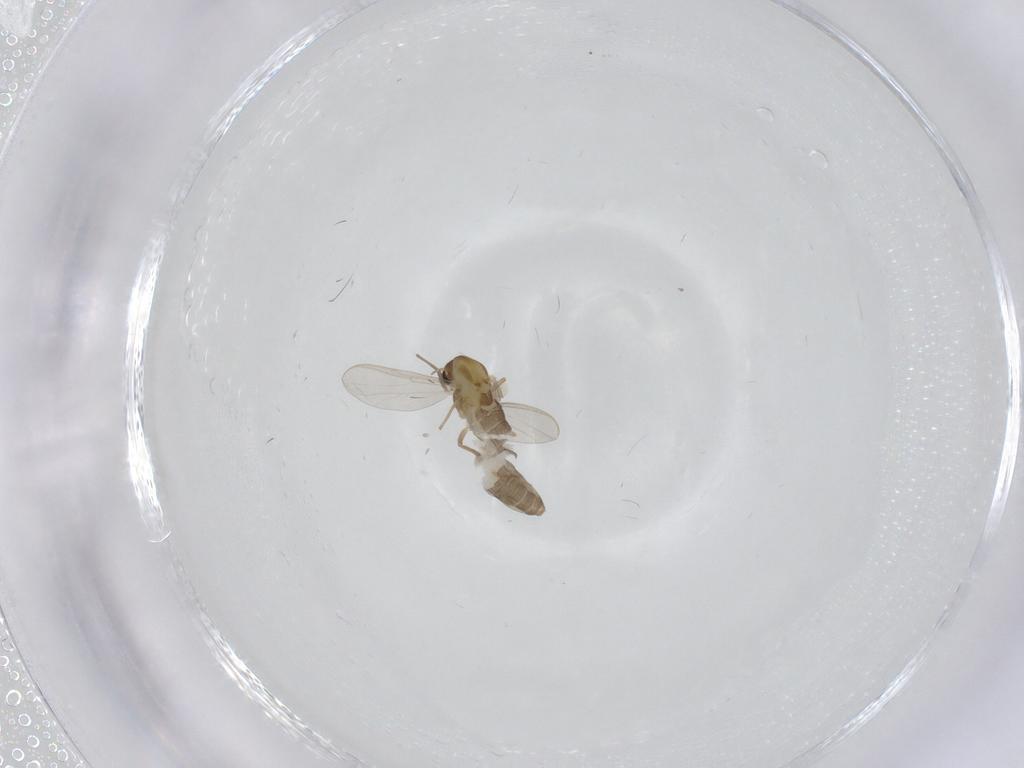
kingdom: Animalia
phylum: Arthropoda
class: Insecta
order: Diptera
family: Chironomidae
